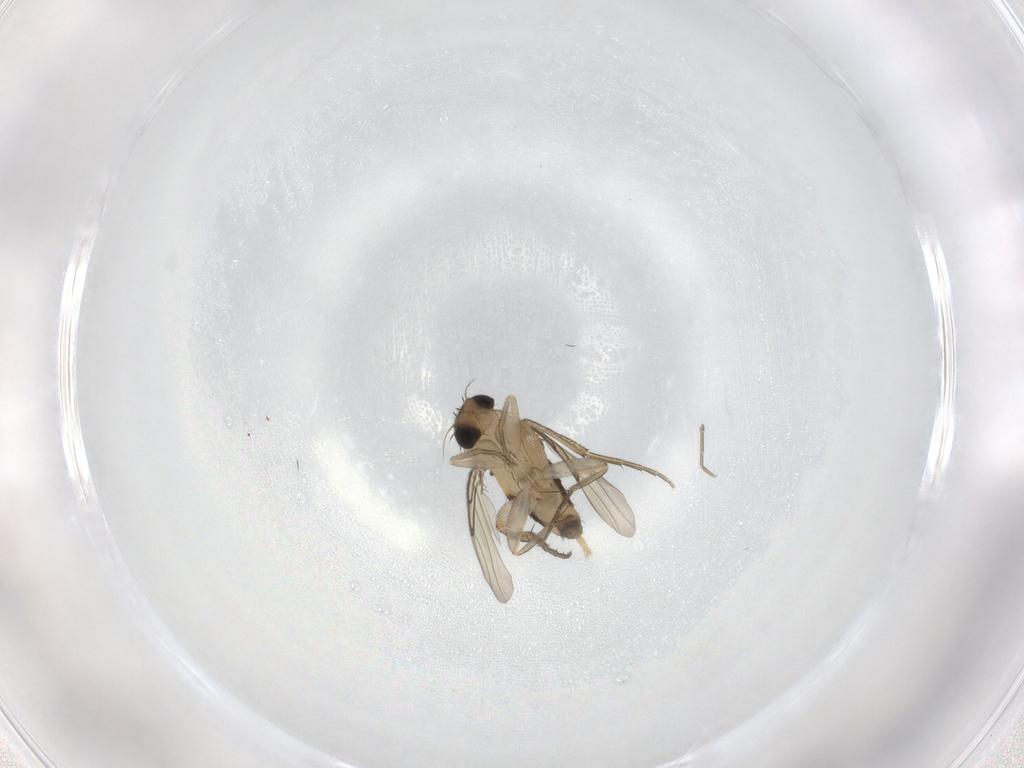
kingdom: Animalia
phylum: Arthropoda
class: Insecta
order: Diptera
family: Phoridae
